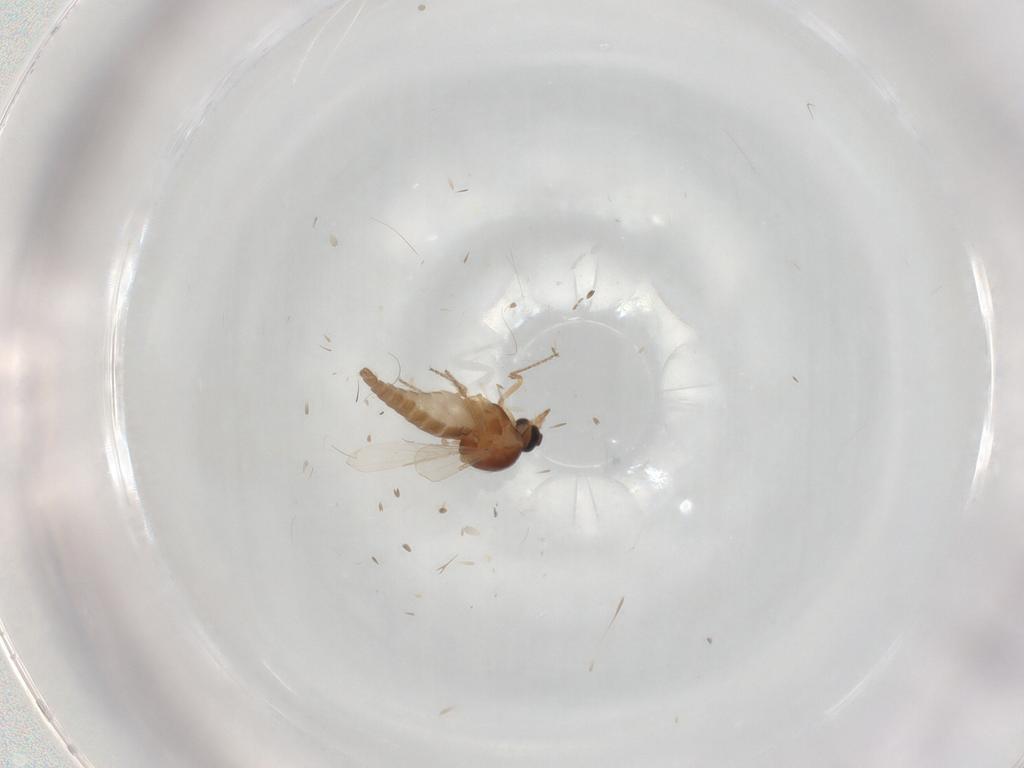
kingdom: Animalia
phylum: Arthropoda
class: Insecta
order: Diptera
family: Ceratopogonidae
